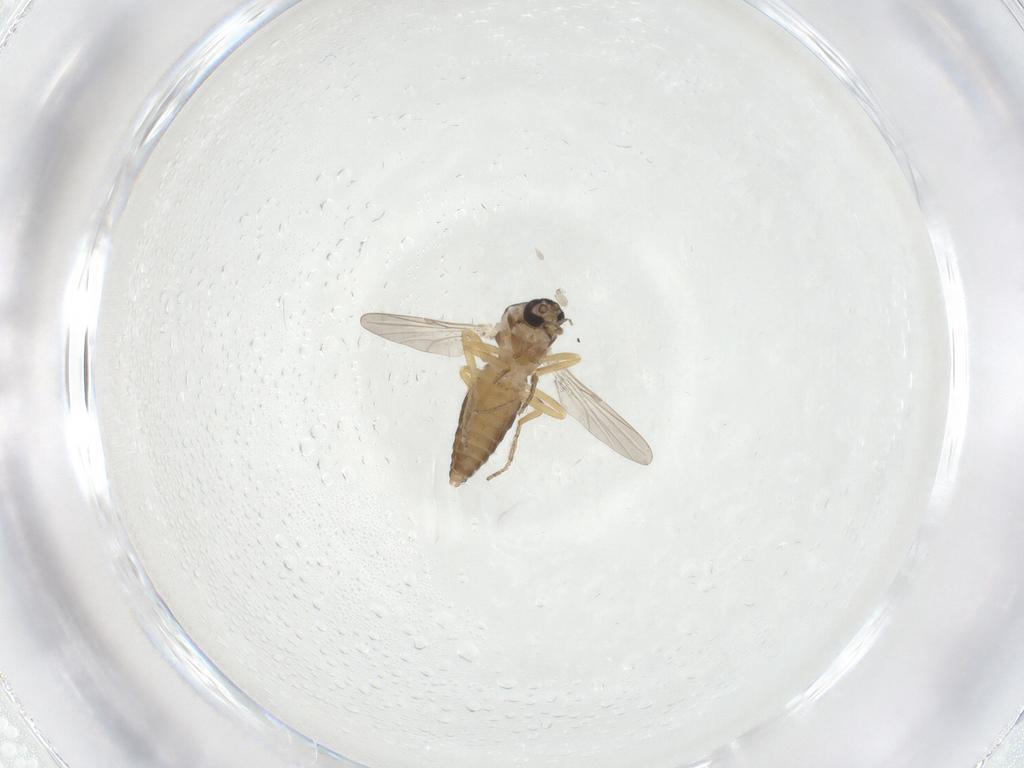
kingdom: Animalia
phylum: Arthropoda
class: Insecta
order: Diptera
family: Ceratopogonidae
